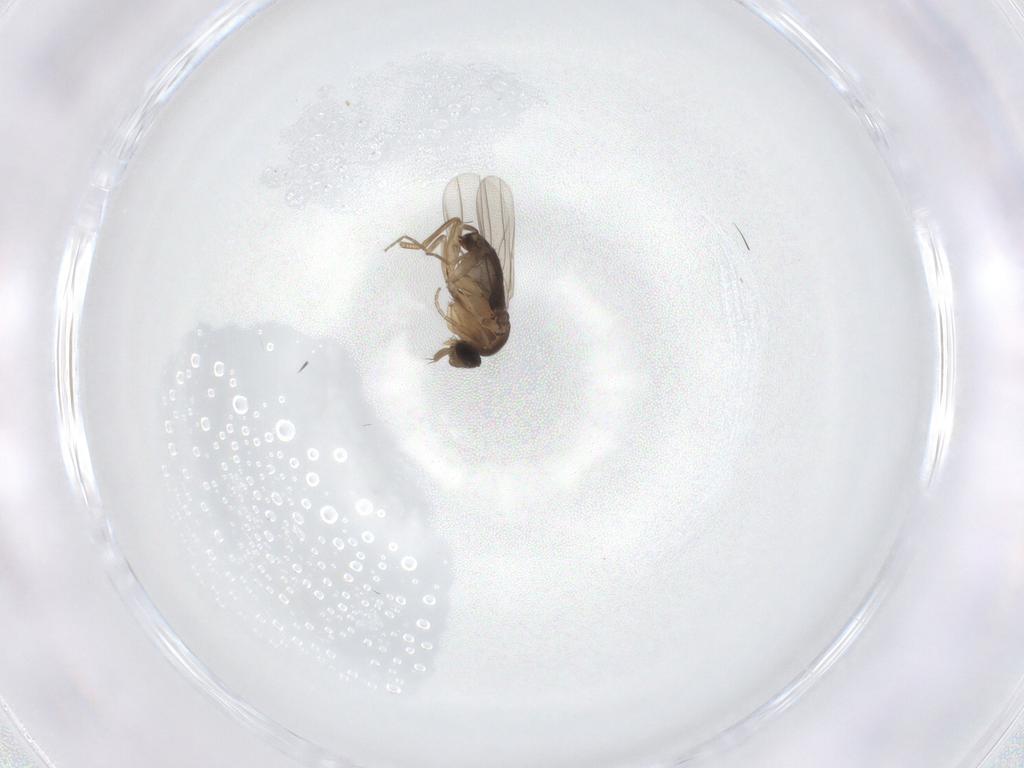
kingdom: Animalia
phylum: Arthropoda
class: Insecta
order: Diptera
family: Phoridae
